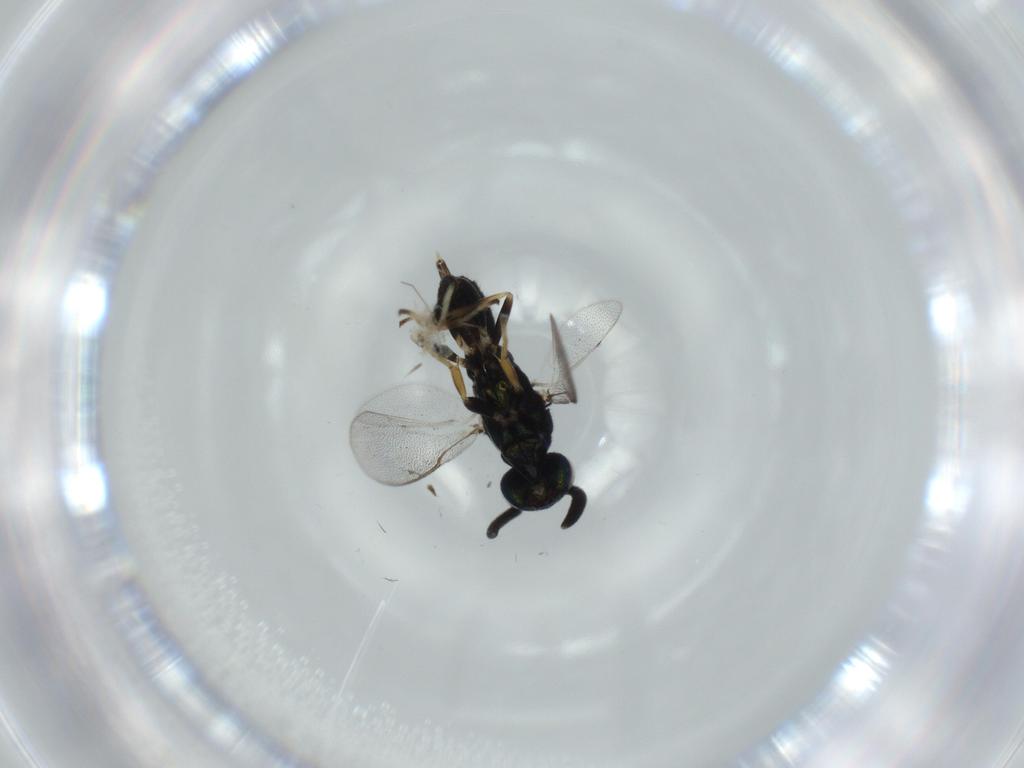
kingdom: Animalia
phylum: Arthropoda
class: Insecta
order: Hymenoptera
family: Eupelmidae
